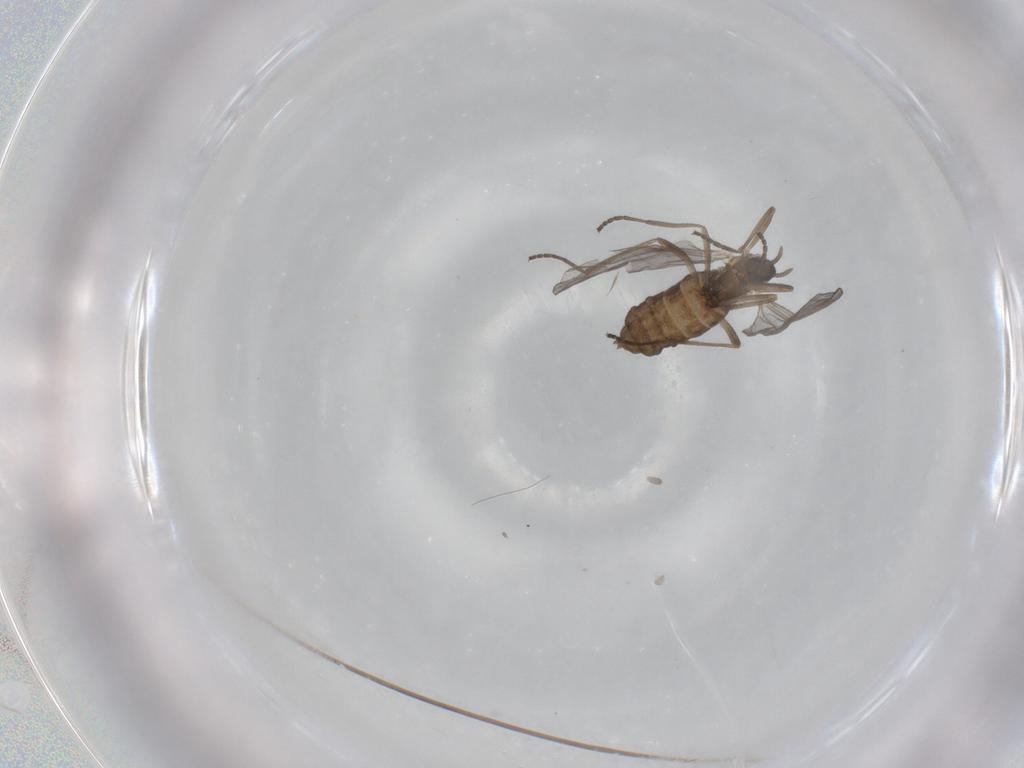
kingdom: Animalia
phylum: Arthropoda
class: Insecta
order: Diptera
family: Cecidomyiidae
